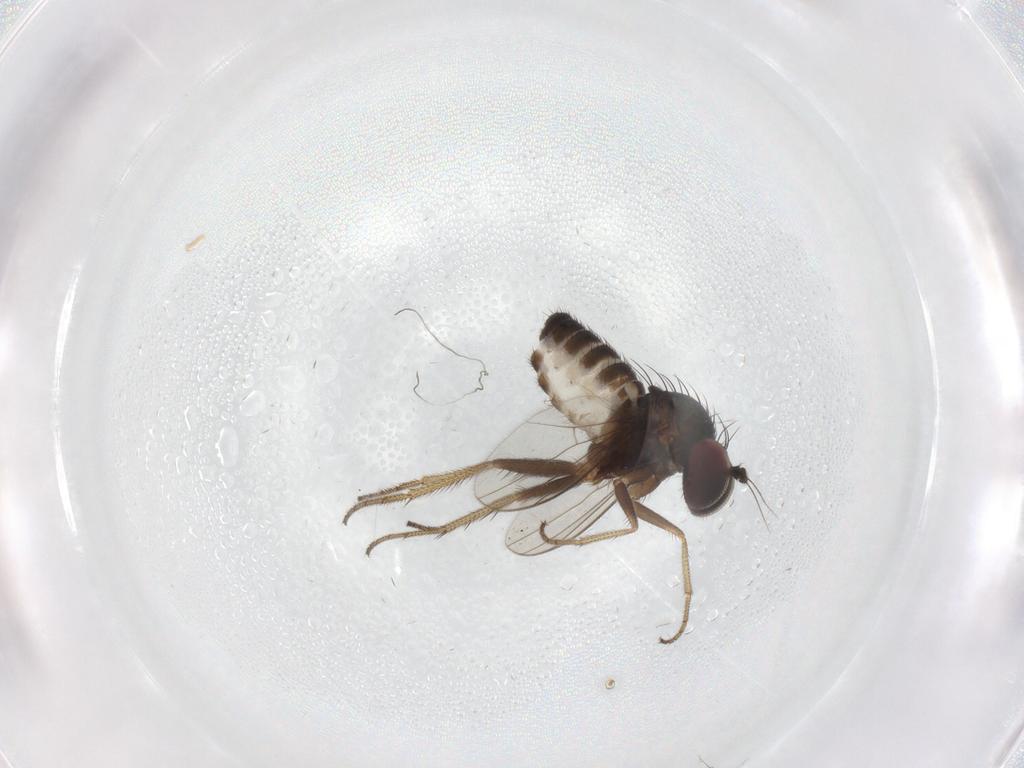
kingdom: Animalia
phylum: Arthropoda
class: Insecta
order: Diptera
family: Dolichopodidae
